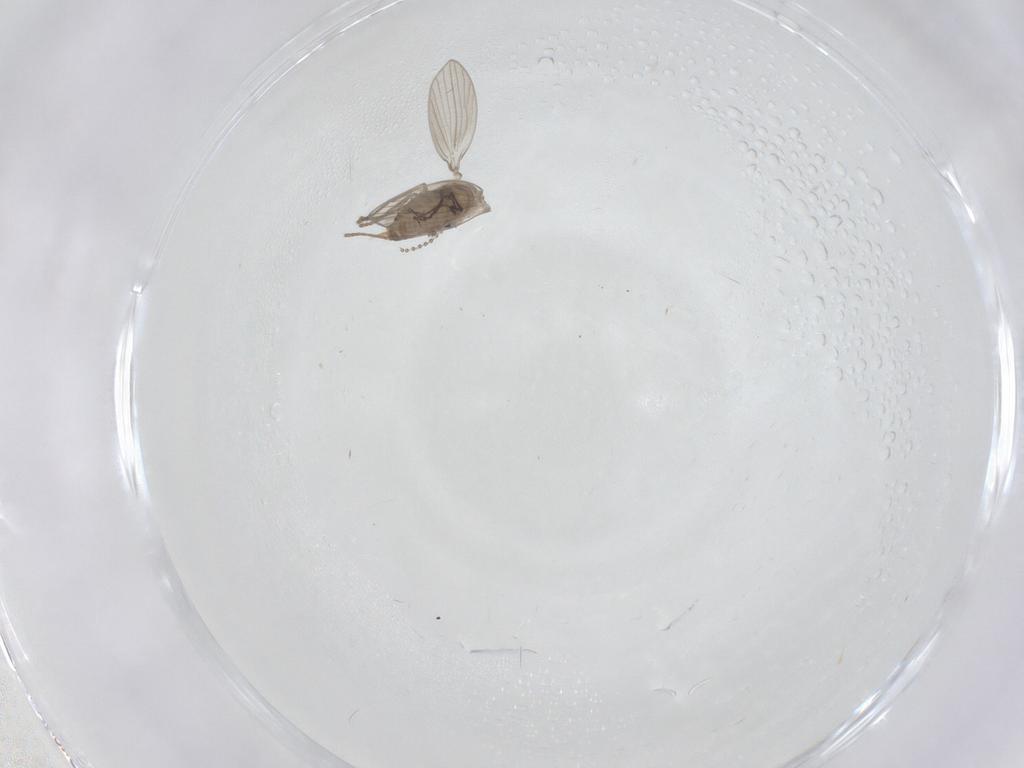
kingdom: Animalia
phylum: Arthropoda
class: Insecta
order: Diptera
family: Psychodidae
